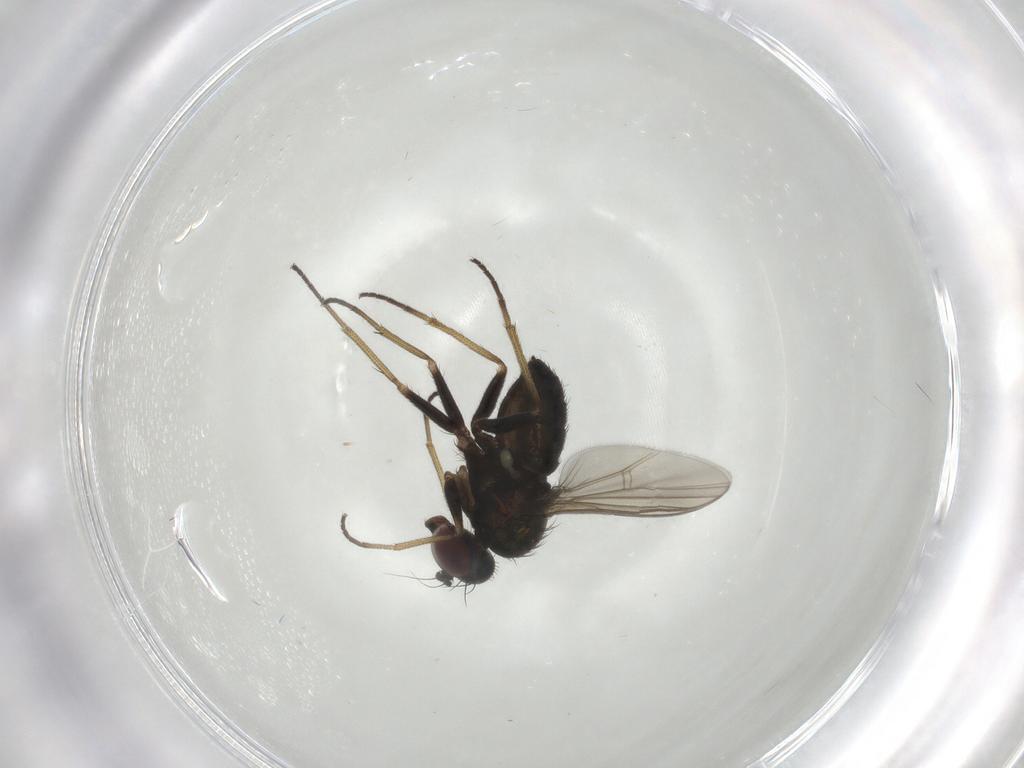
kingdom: Animalia
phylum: Arthropoda
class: Insecta
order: Diptera
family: Dolichopodidae
